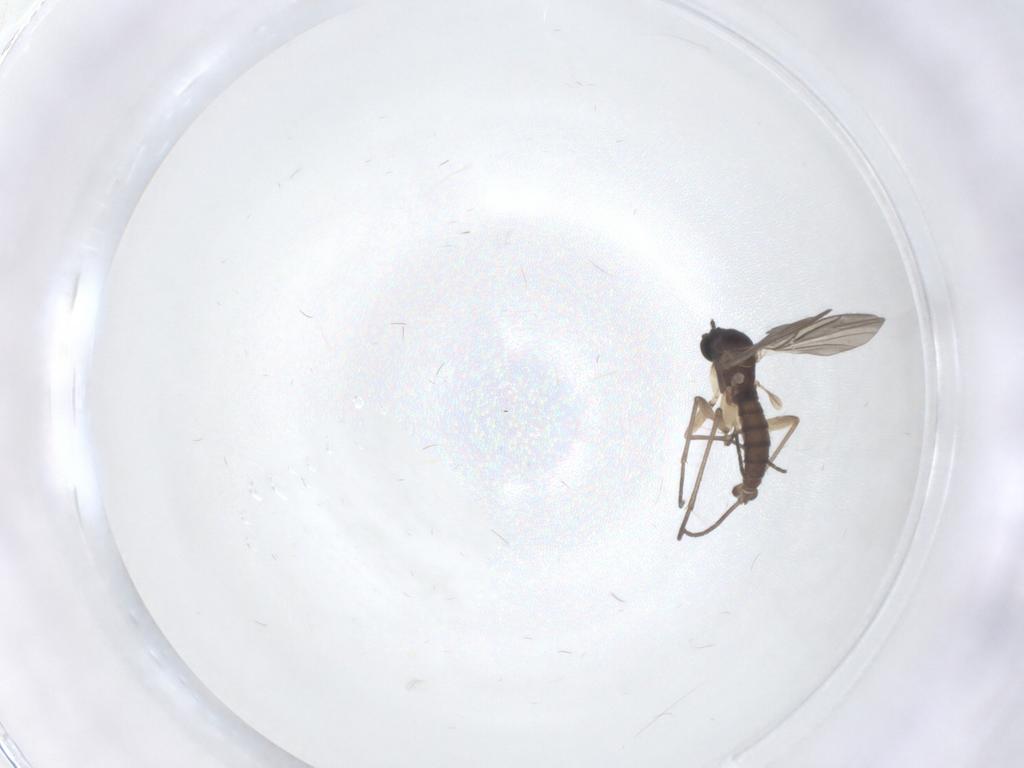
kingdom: Animalia
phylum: Arthropoda
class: Insecta
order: Diptera
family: Sciaridae
